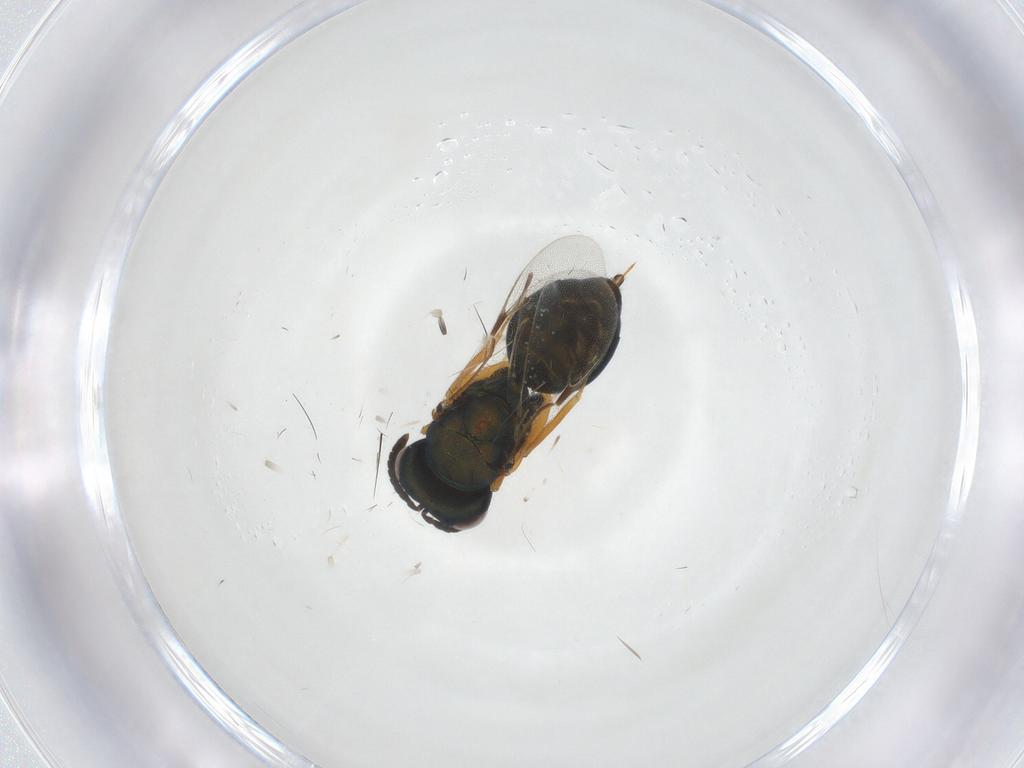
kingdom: Animalia
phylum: Arthropoda
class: Insecta
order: Hymenoptera
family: Pteromalidae
